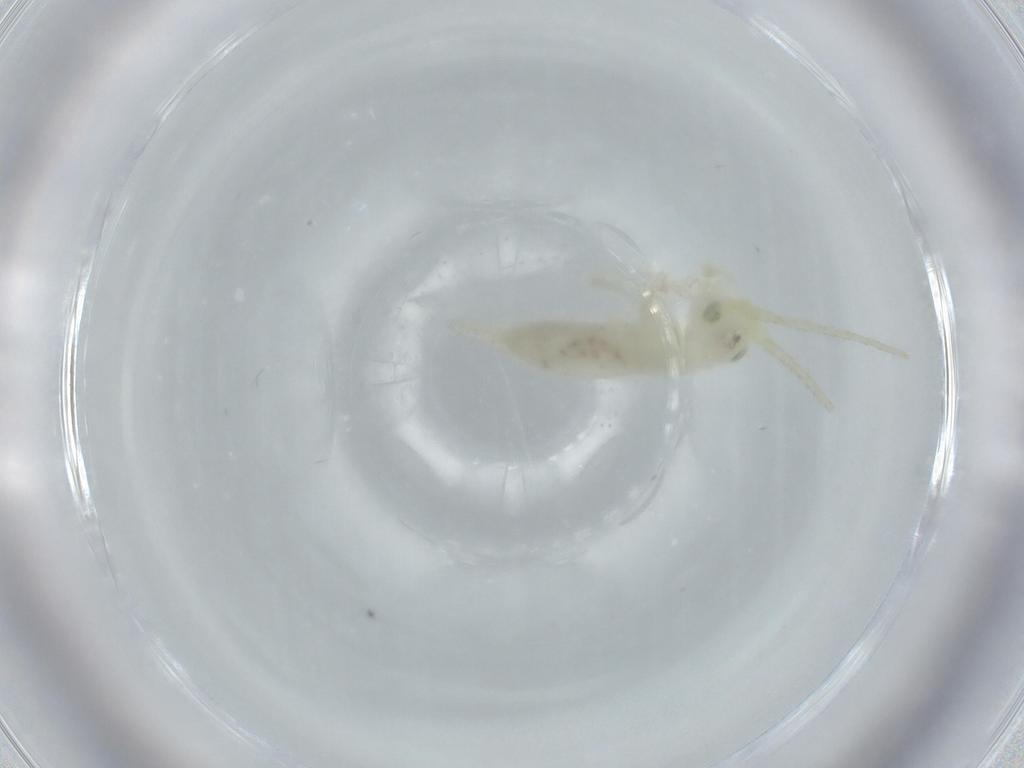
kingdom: Animalia
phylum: Arthropoda
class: Insecta
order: Orthoptera
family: Trigonidiidae
